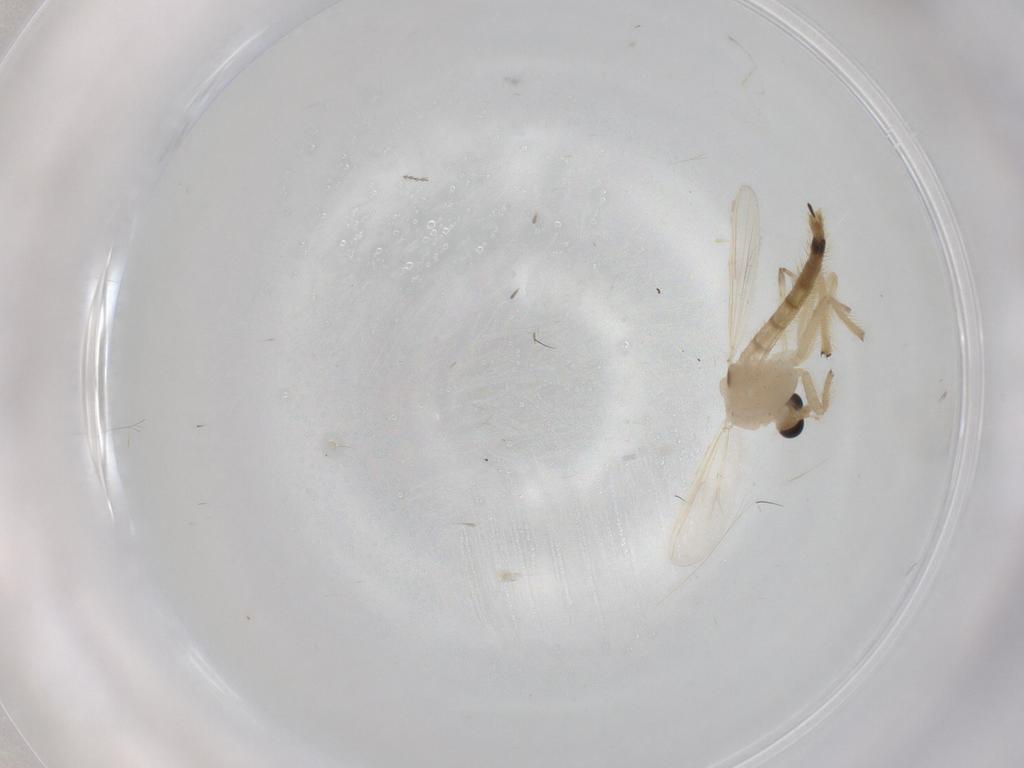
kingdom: Animalia
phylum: Arthropoda
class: Insecta
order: Diptera
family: Chironomidae
